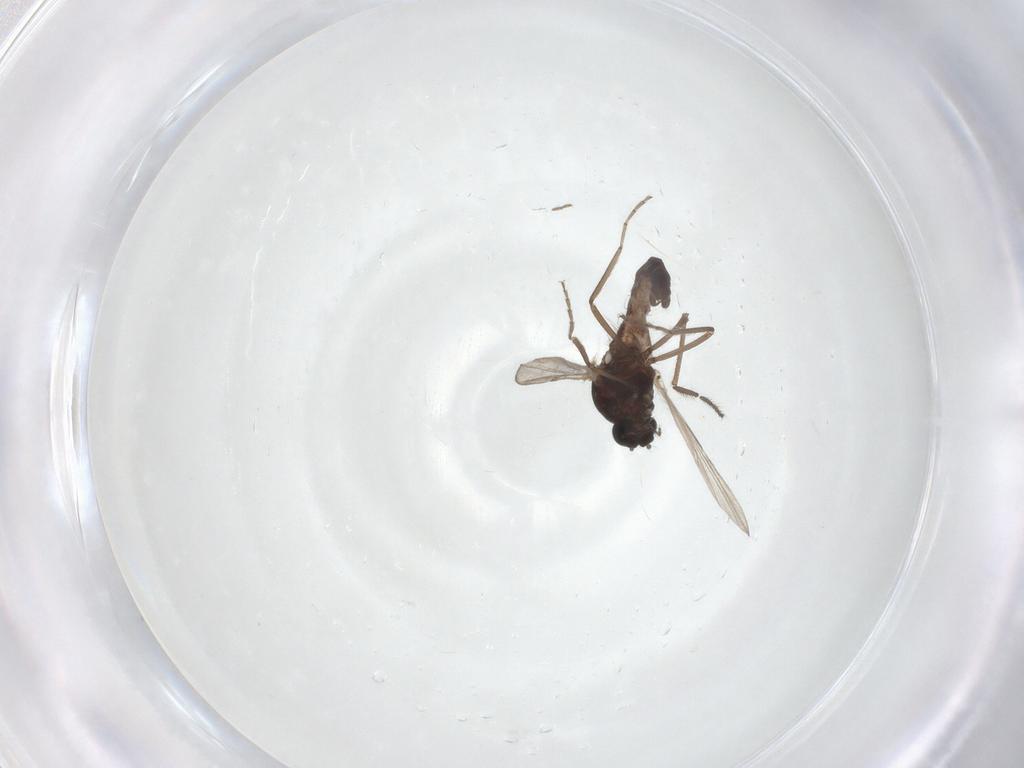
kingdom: Animalia
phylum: Arthropoda
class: Insecta
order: Diptera
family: Ceratopogonidae
